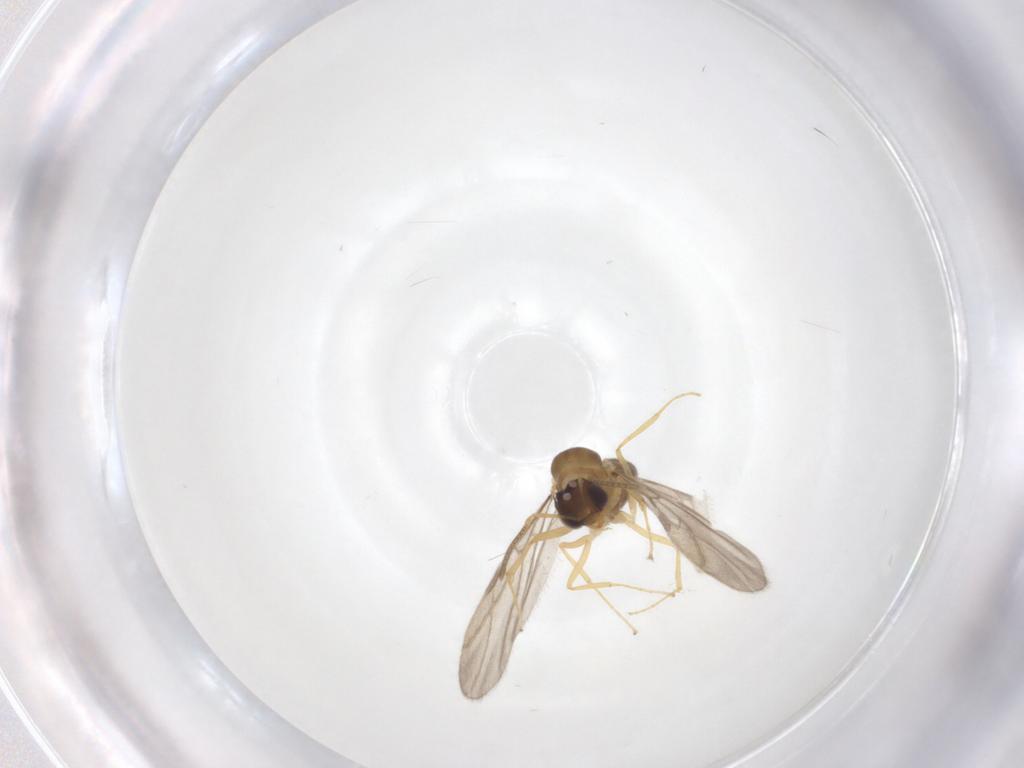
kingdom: Animalia
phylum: Arthropoda
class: Insecta
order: Hymenoptera
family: Formicidae
